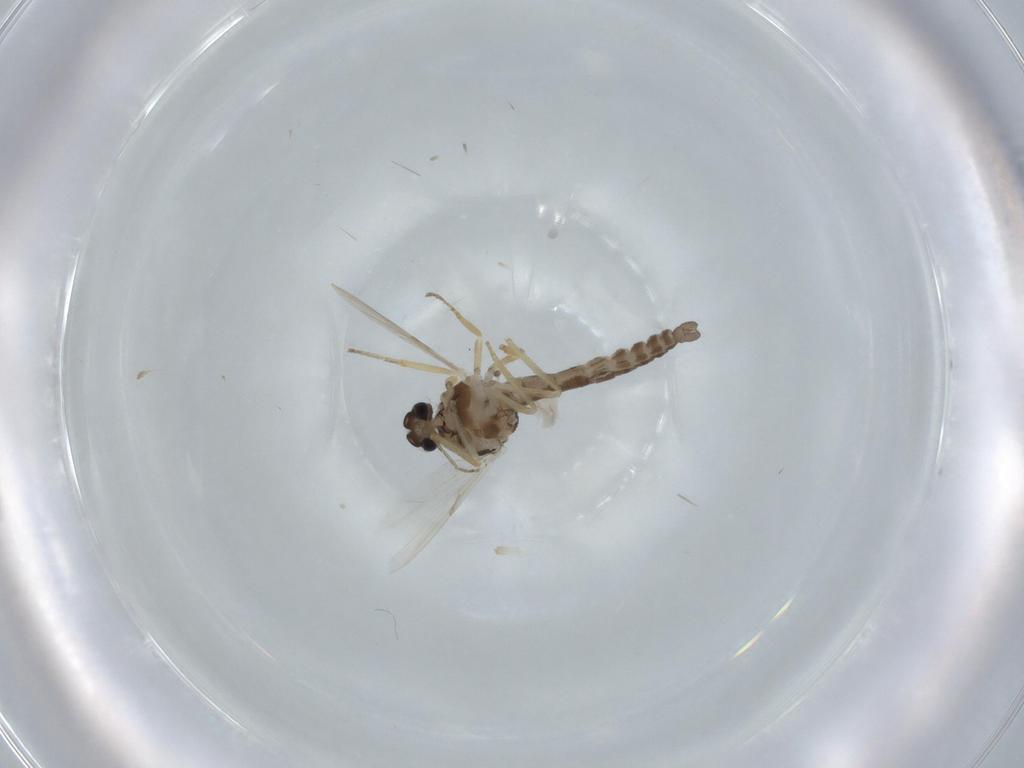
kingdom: Animalia
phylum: Arthropoda
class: Insecta
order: Diptera
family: Ceratopogonidae
